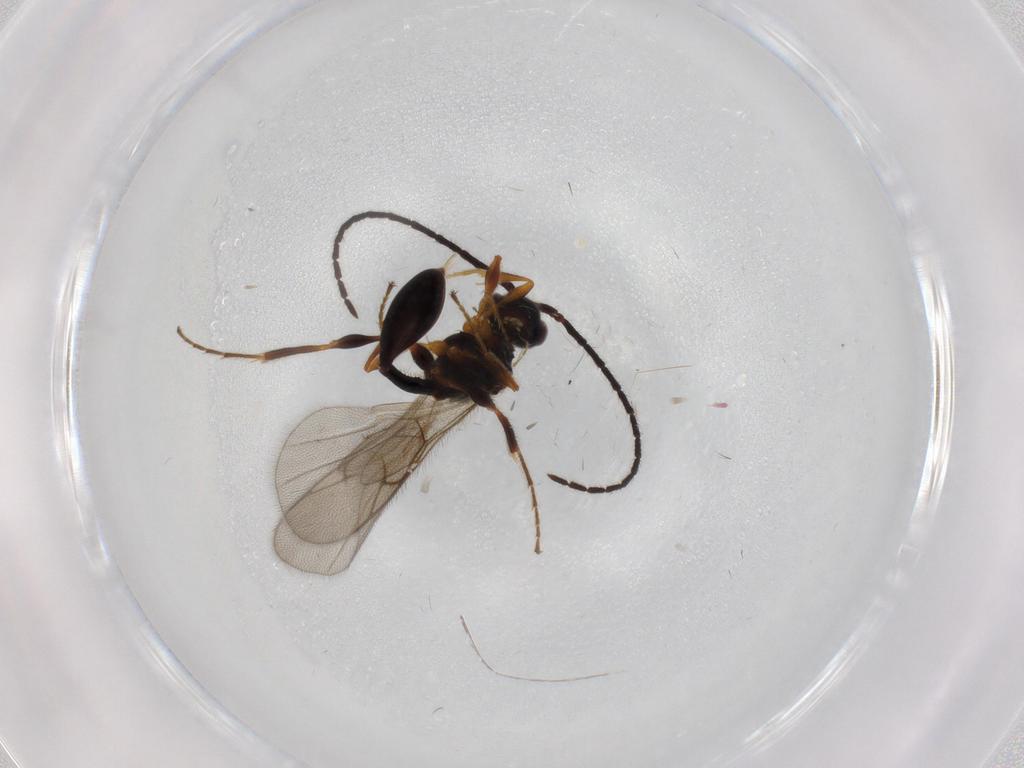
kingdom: Animalia
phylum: Arthropoda
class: Insecta
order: Hymenoptera
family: Diapriidae
